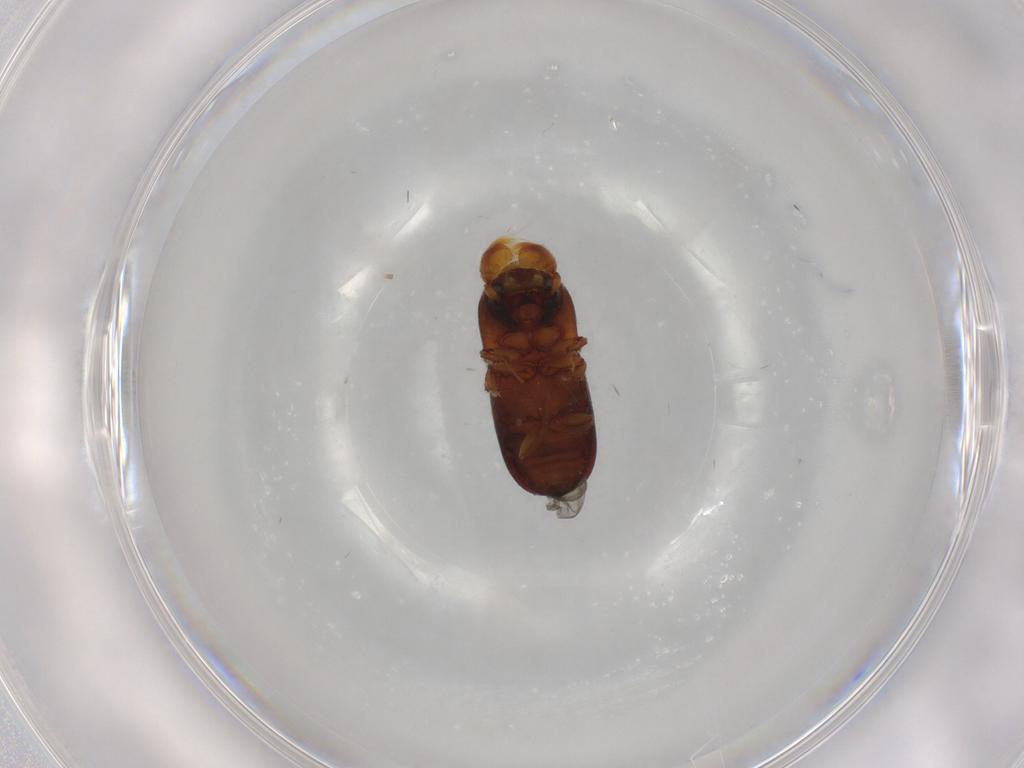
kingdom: Animalia
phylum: Arthropoda
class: Insecta
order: Coleoptera
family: Curculionidae
